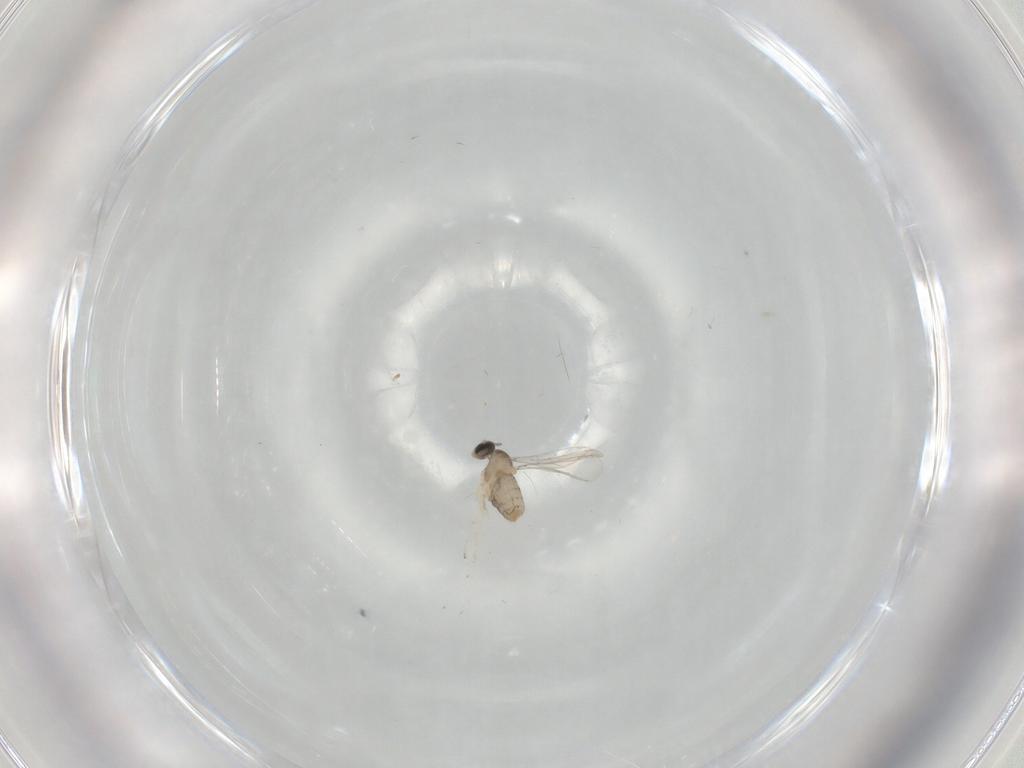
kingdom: Animalia
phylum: Arthropoda
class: Insecta
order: Diptera
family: Cecidomyiidae
